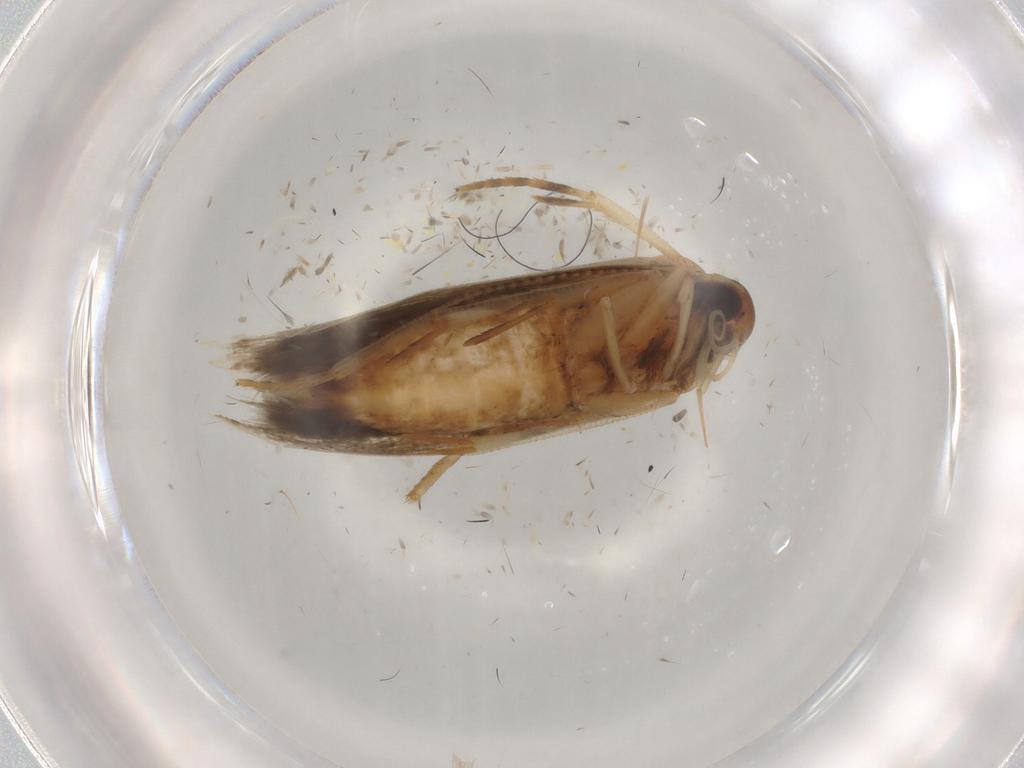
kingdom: Animalia
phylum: Arthropoda
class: Insecta
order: Lepidoptera
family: Gelechiidae
